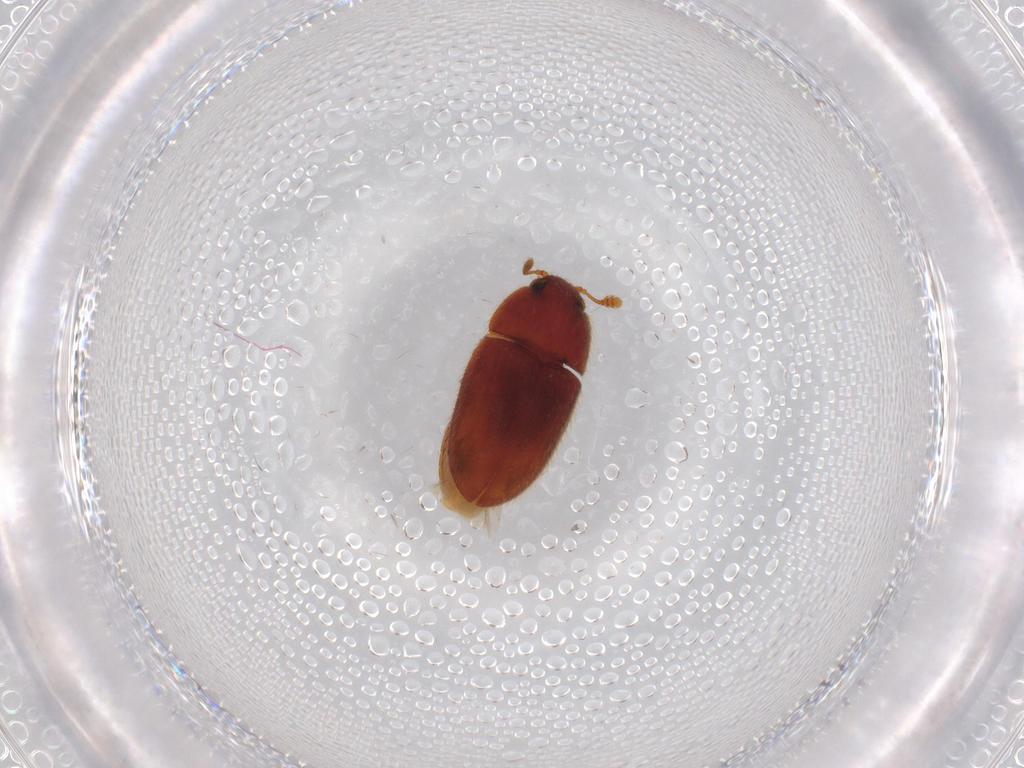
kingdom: Animalia
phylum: Arthropoda
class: Insecta
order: Coleoptera
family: Biphyllidae
